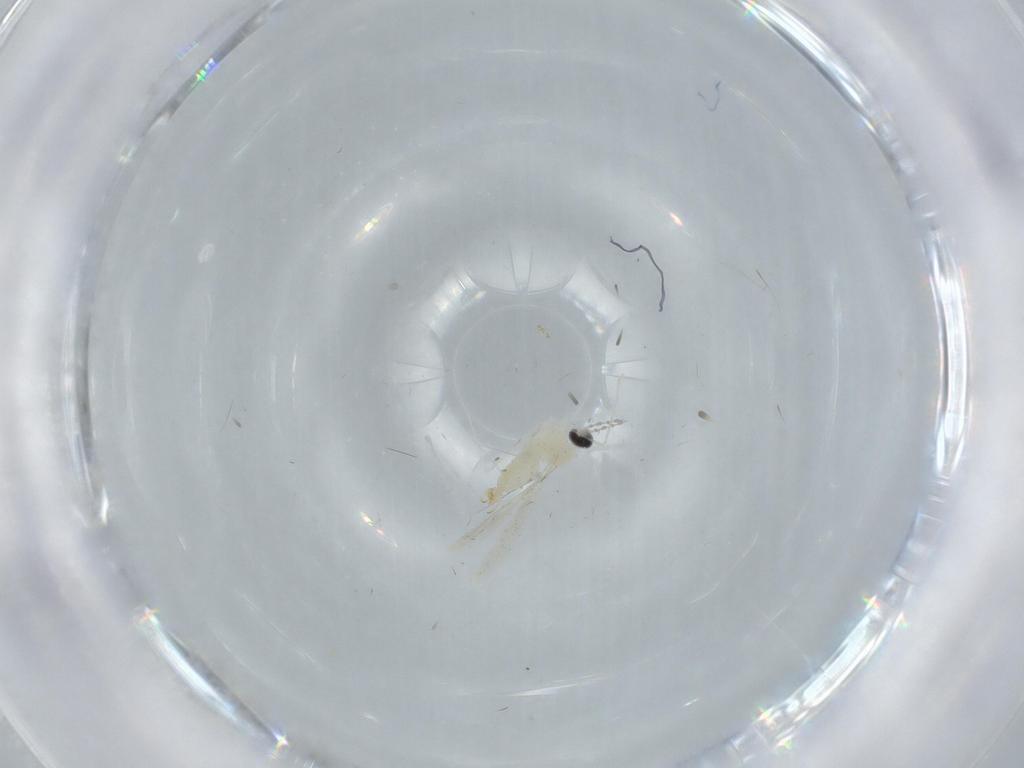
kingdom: Animalia
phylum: Arthropoda
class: Insecta
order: Diptera
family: Cecidomyiidae
